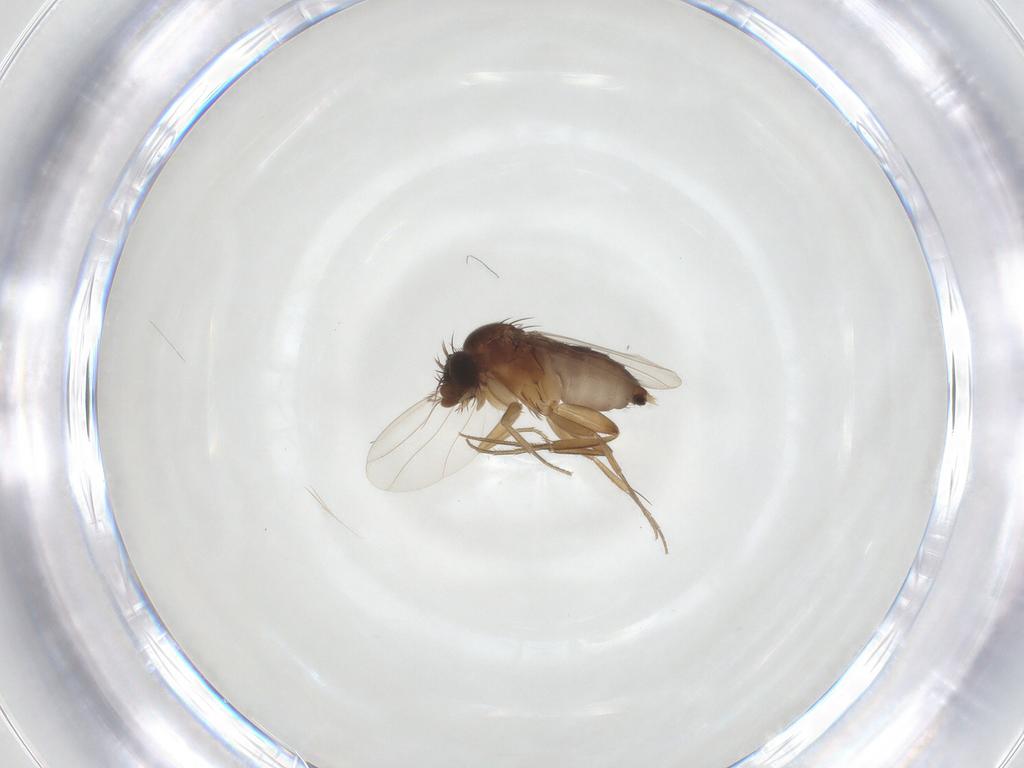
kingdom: Animalia
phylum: Arthropoda
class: Insecta
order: Diptera
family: Phoridae
